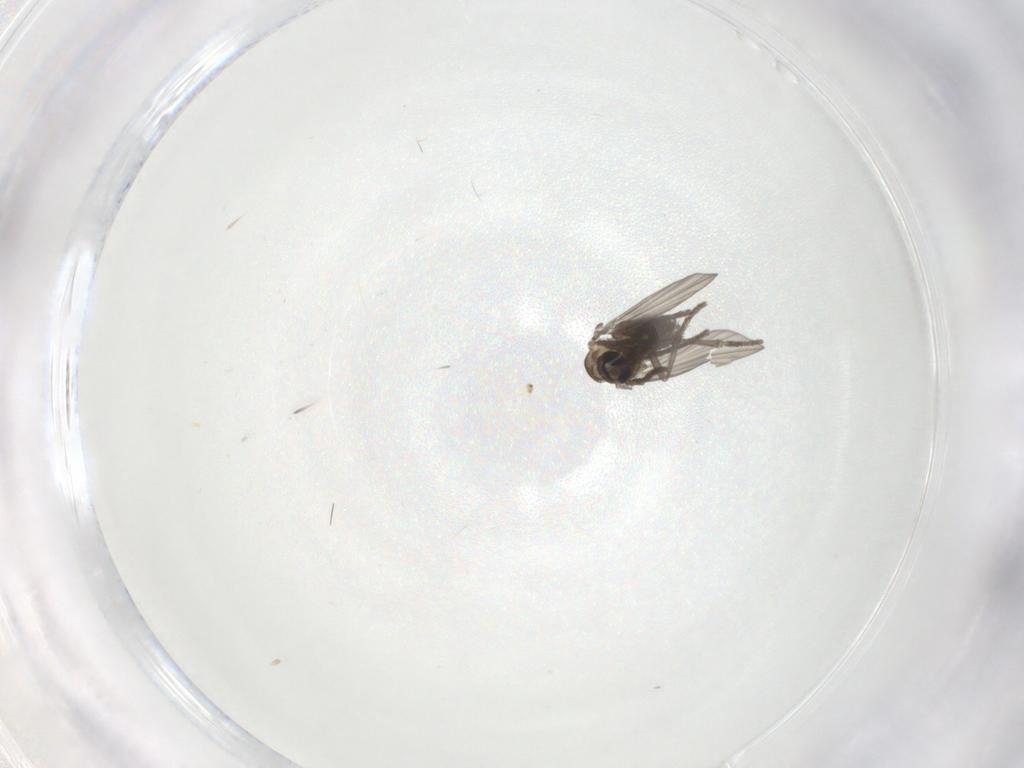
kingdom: Animalia
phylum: Arthropoda
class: Insecta
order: Diptera
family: Psychodidae
